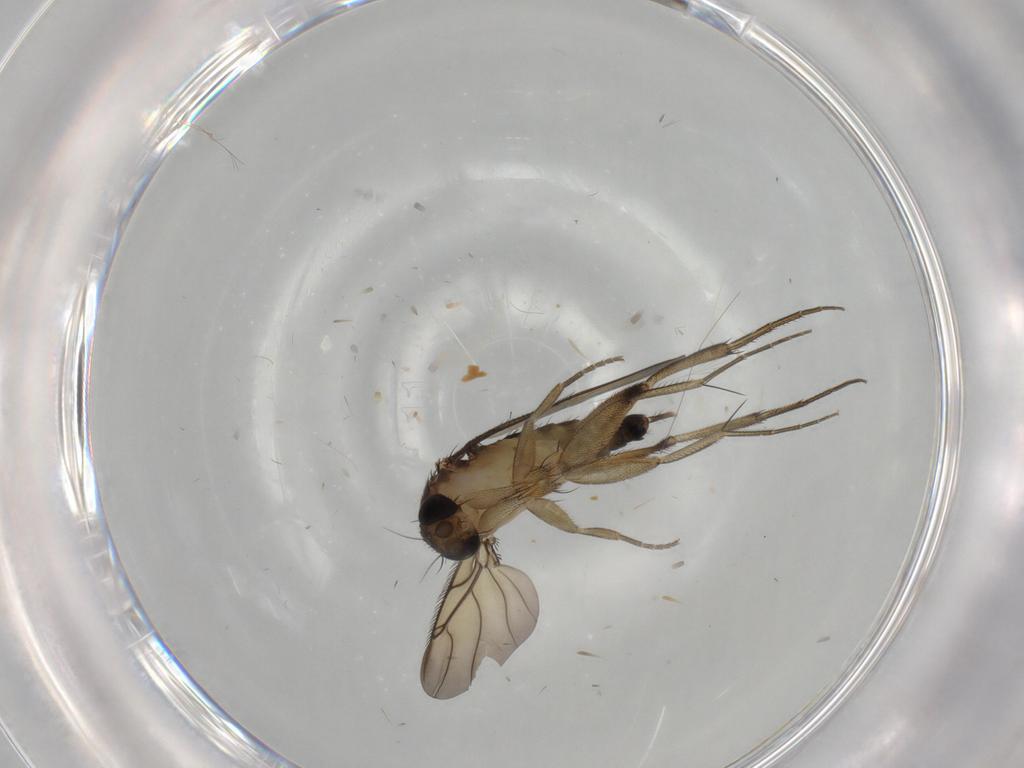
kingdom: Animalia
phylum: Arthropoda
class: Insecta
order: Diptera
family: Phoridae
